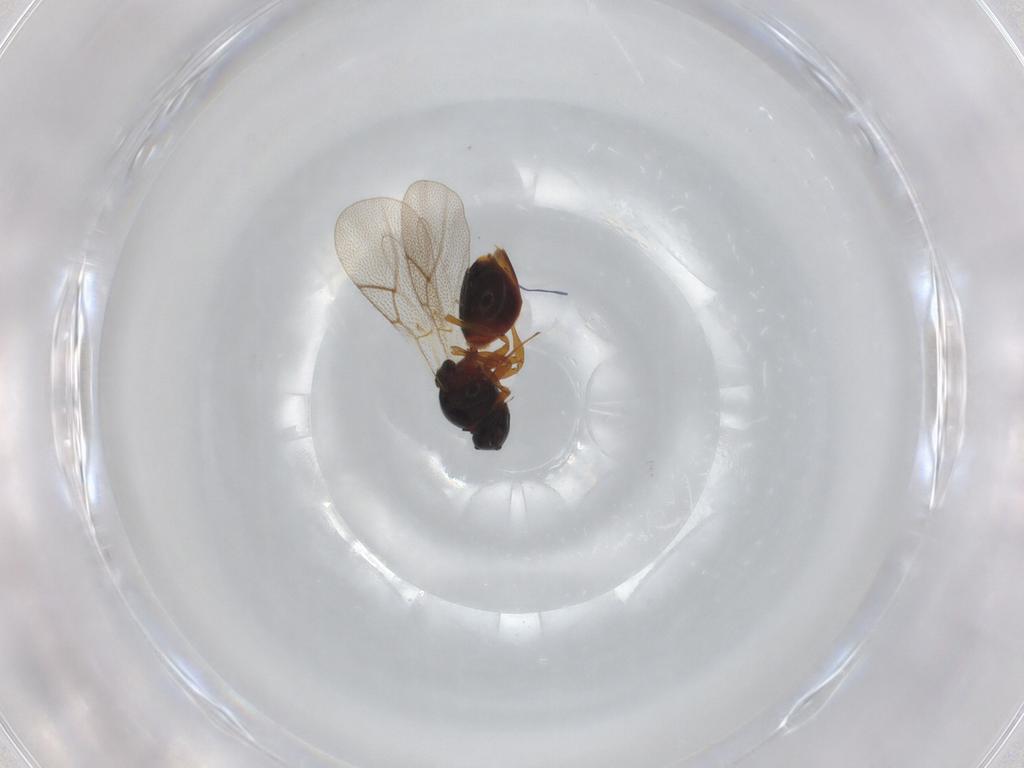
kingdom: Animalia
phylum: Arthropoda
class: Insecta
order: Hymenoptera
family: Figitidae
